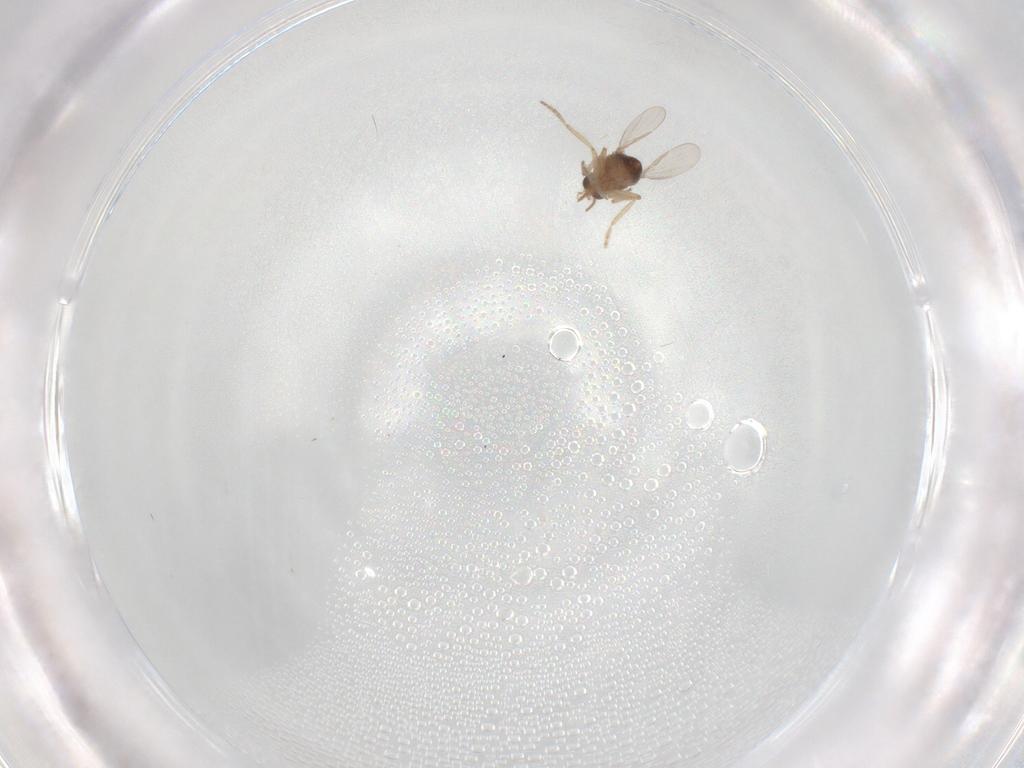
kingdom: Animalia
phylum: Arthropoda
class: Insecta
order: Diptera
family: Ceratopogonidae
